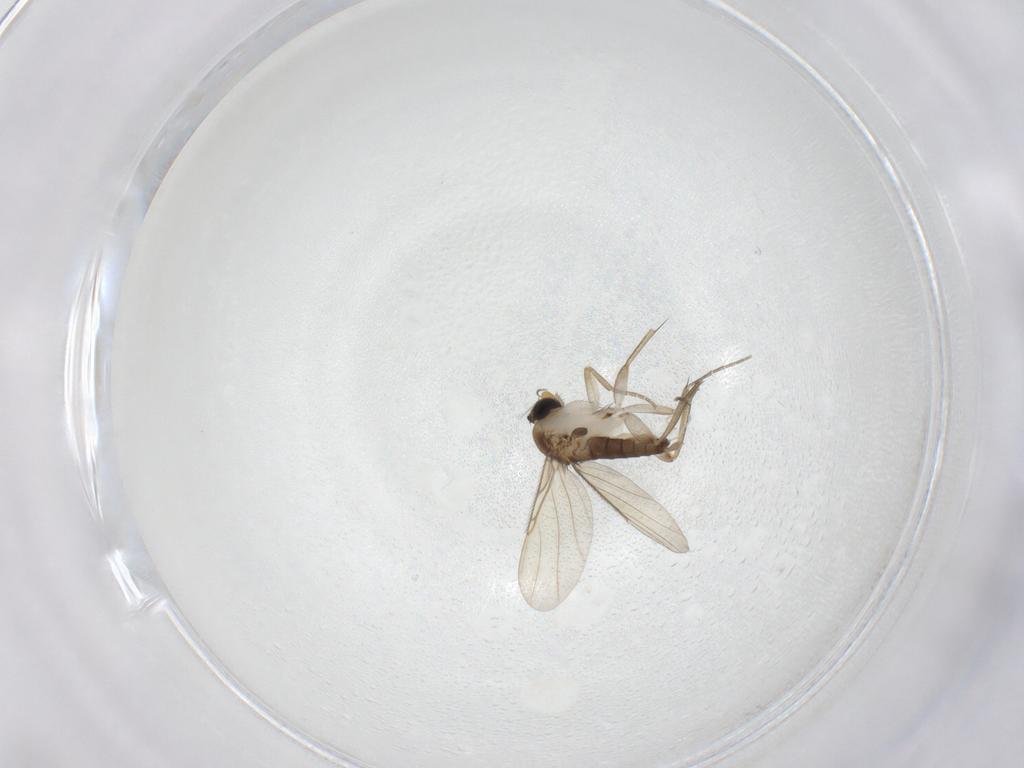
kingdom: Animalia
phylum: Arthropoda
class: Insecta
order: Diptera
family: Phoridae
